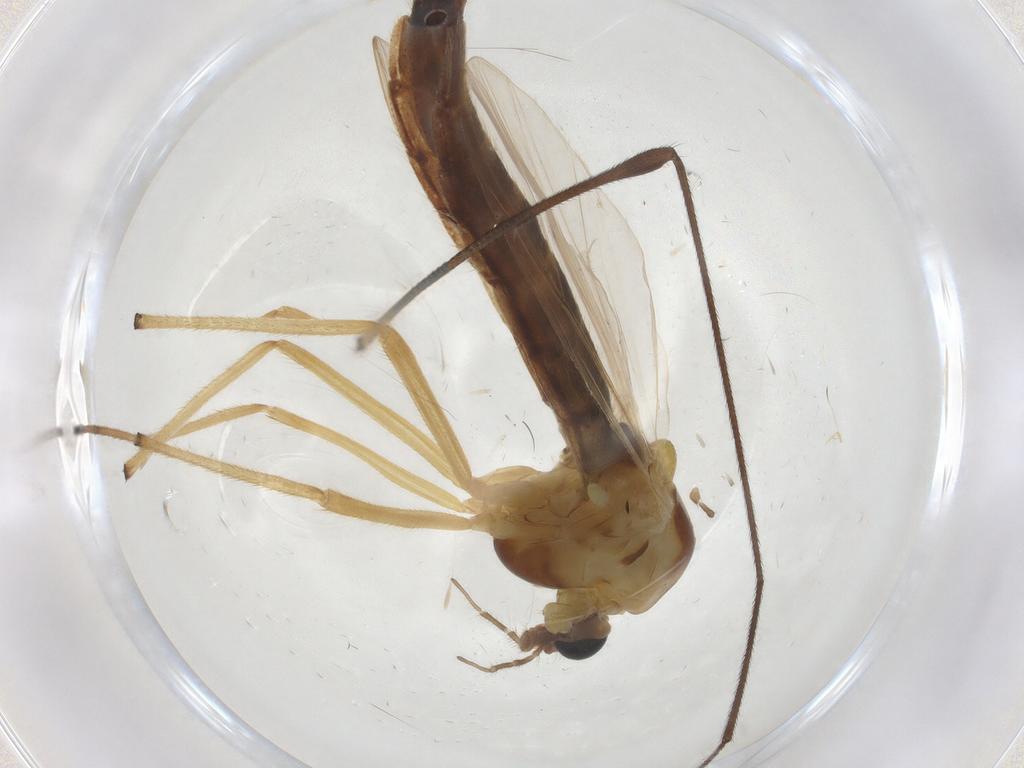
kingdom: Animalia
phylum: Arthropoda
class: Insecta
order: Diptera
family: Chironomidae
